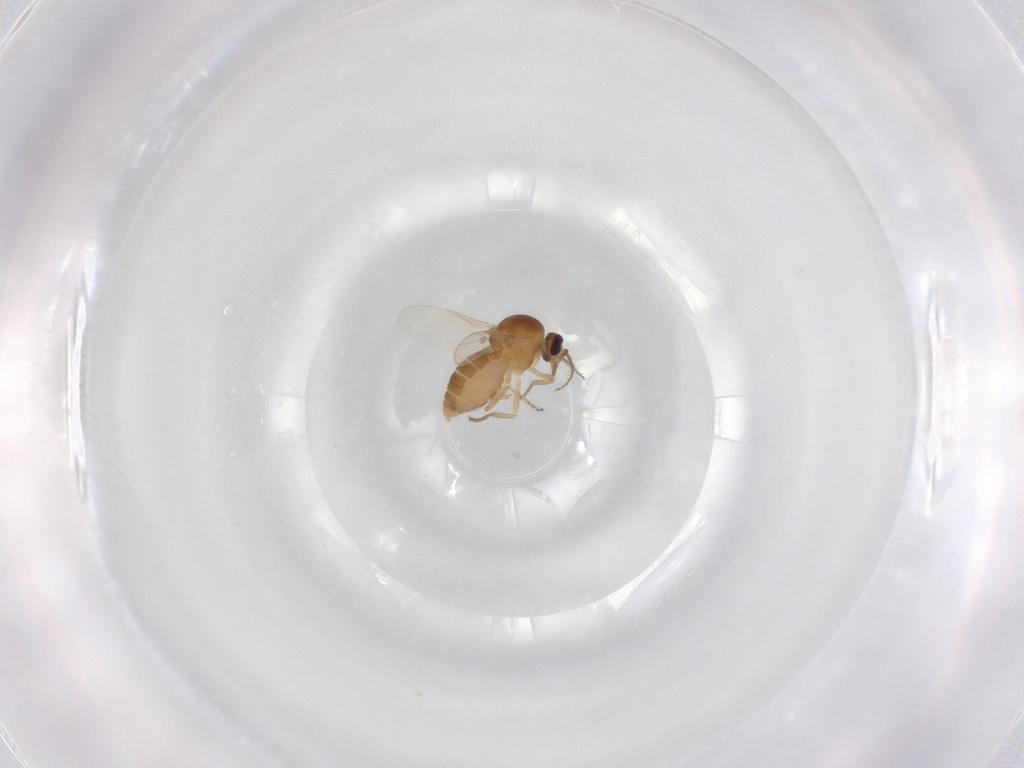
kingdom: Animalia
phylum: Arthropoda
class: Insecta
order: Diptera
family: Ceratopogonidae
